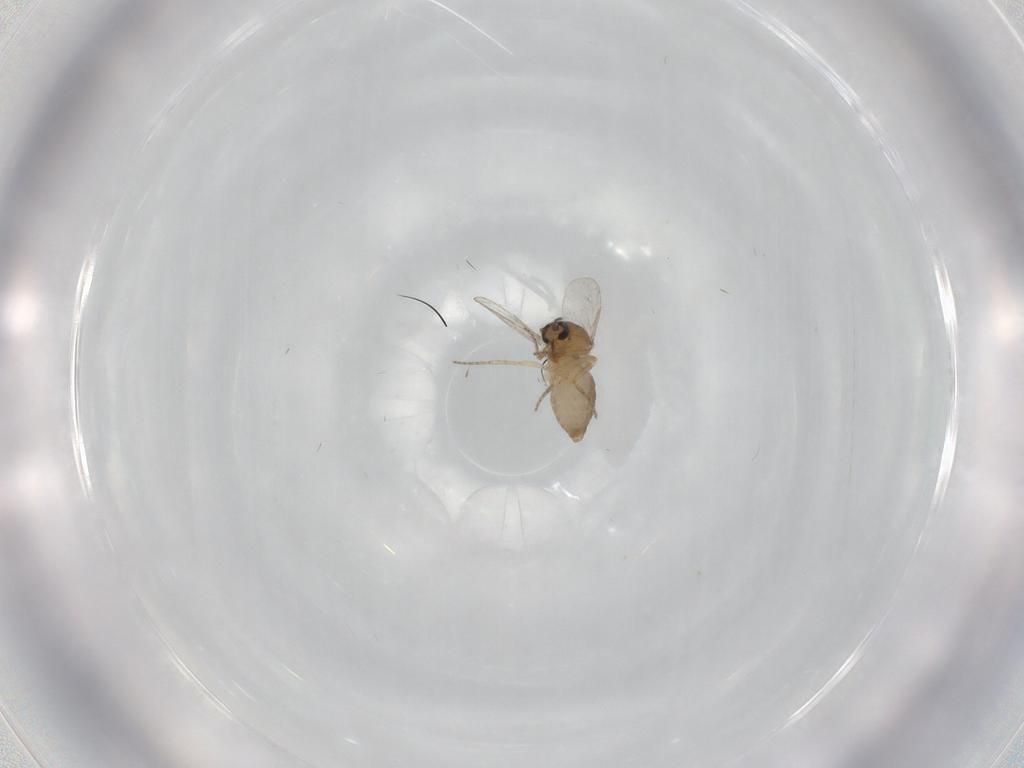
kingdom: Animalia
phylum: Arthropoda
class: Insecta
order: Diptera
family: Ceratopogonidae
